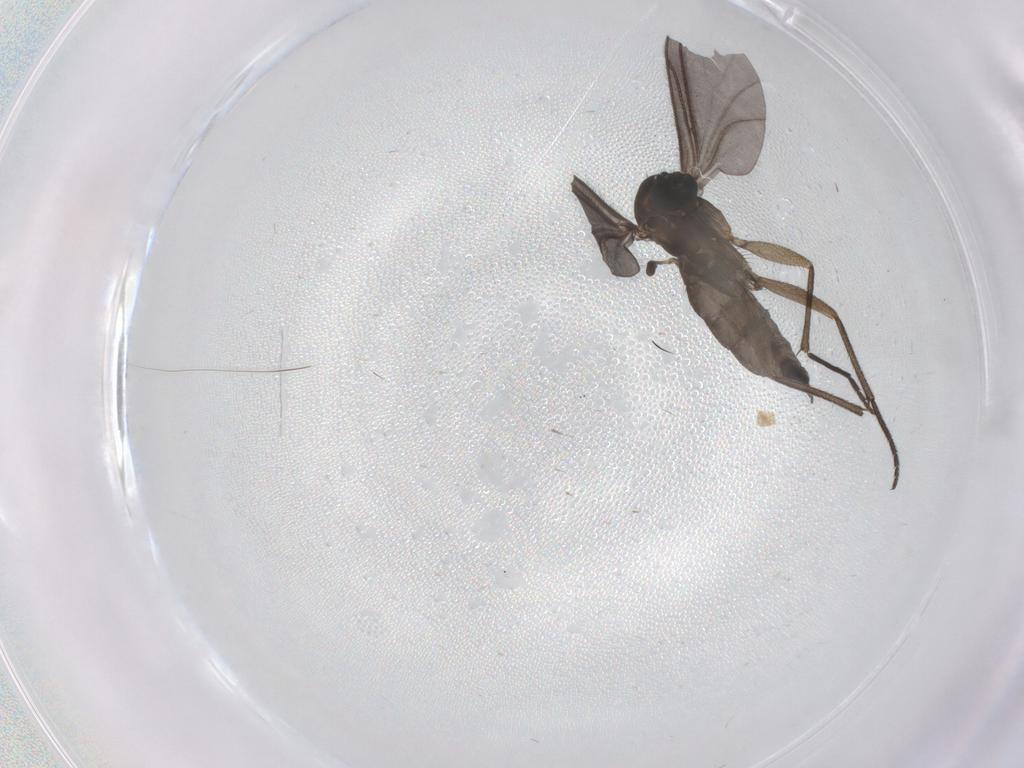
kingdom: Animalia
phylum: Arthropoda
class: Insecta
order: Diptera
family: Sciaridae
